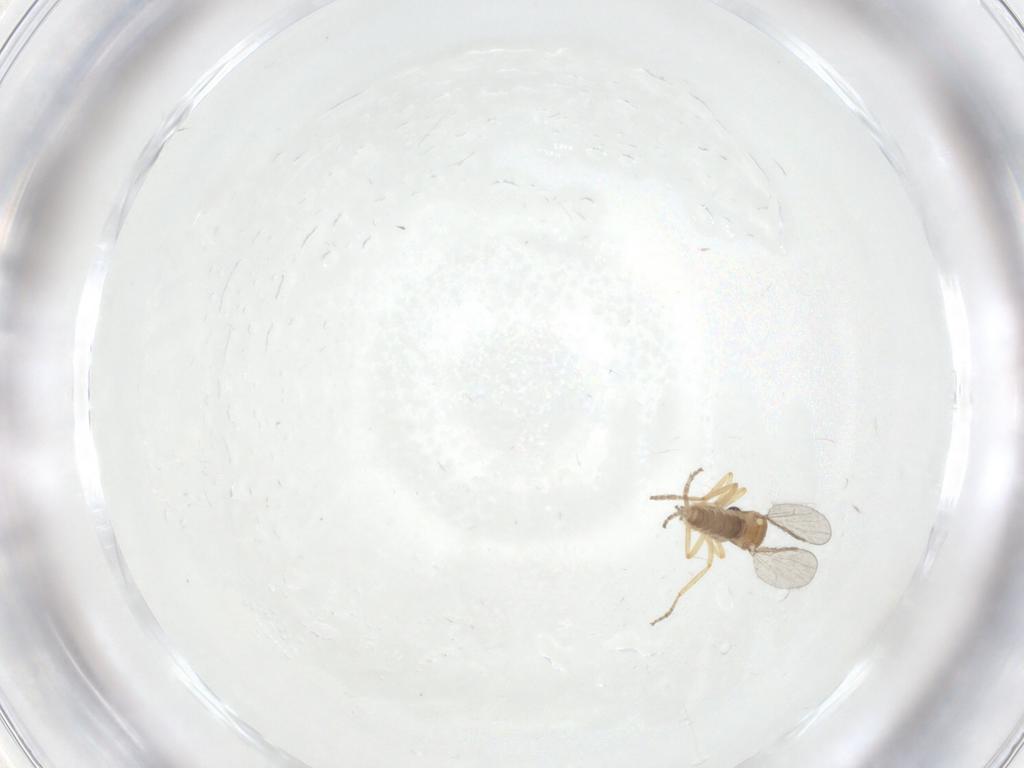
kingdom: Animalia
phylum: Arthropoda
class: Insecta
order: Diptera
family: Ceratopogonidae
